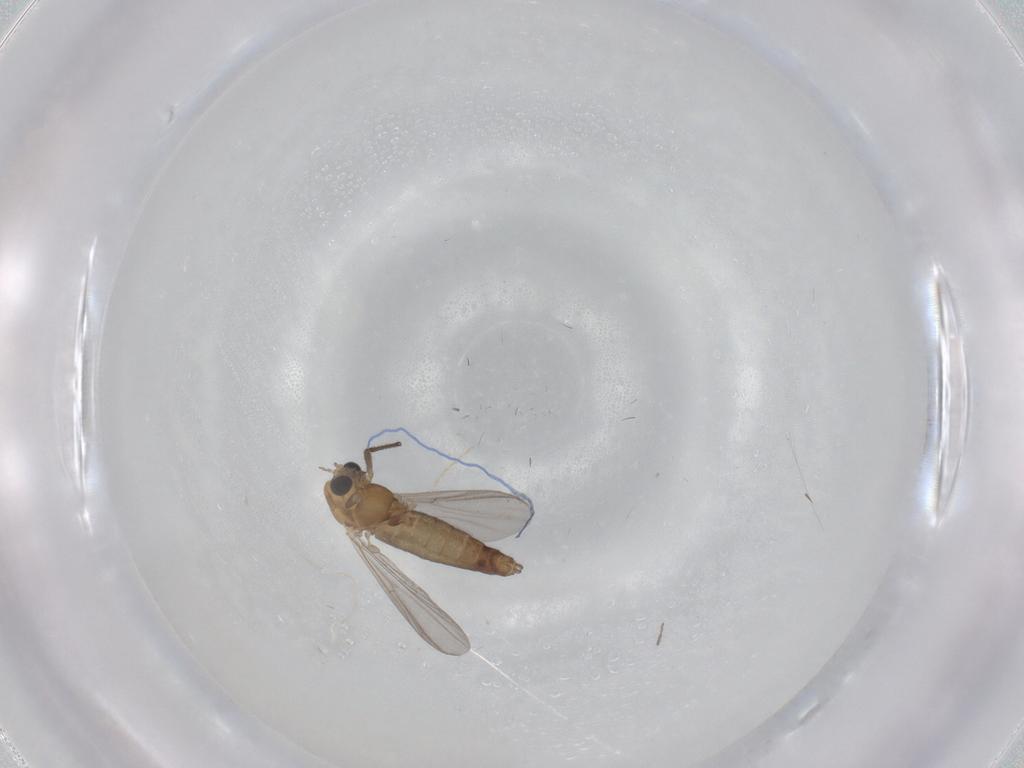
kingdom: Animalia
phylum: Arthropoda
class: Insecta
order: Diptera
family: Chironomidae
